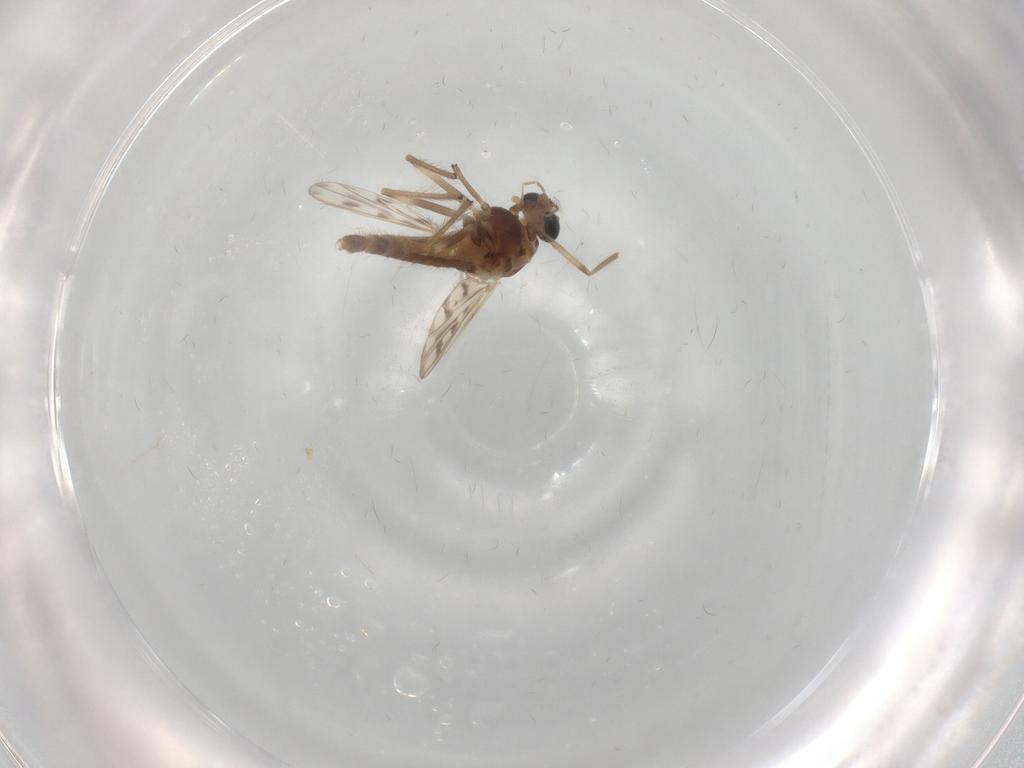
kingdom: Animalia
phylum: Arthropoda
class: Insecta
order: Diptera
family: Chironomidae
